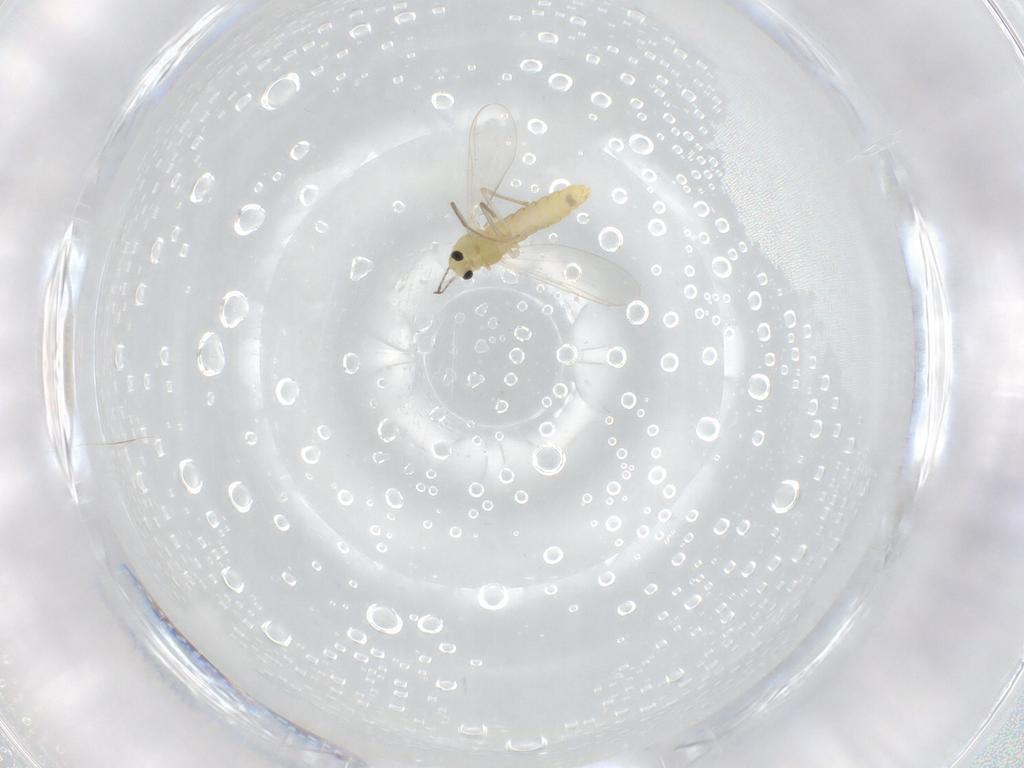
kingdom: Animalia
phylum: Arthropoda
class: Insecta
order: Diptera
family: Chironomidae
